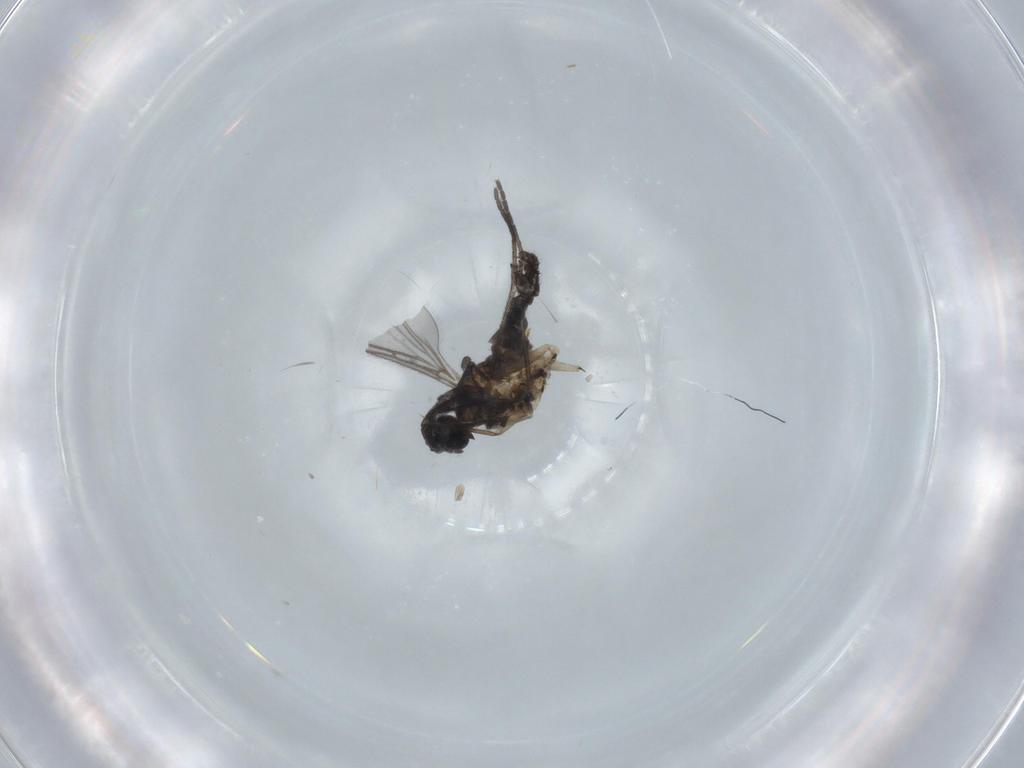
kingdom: Animalia
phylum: Arthropoda
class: Insecta
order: Diptera
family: Sciaridae
